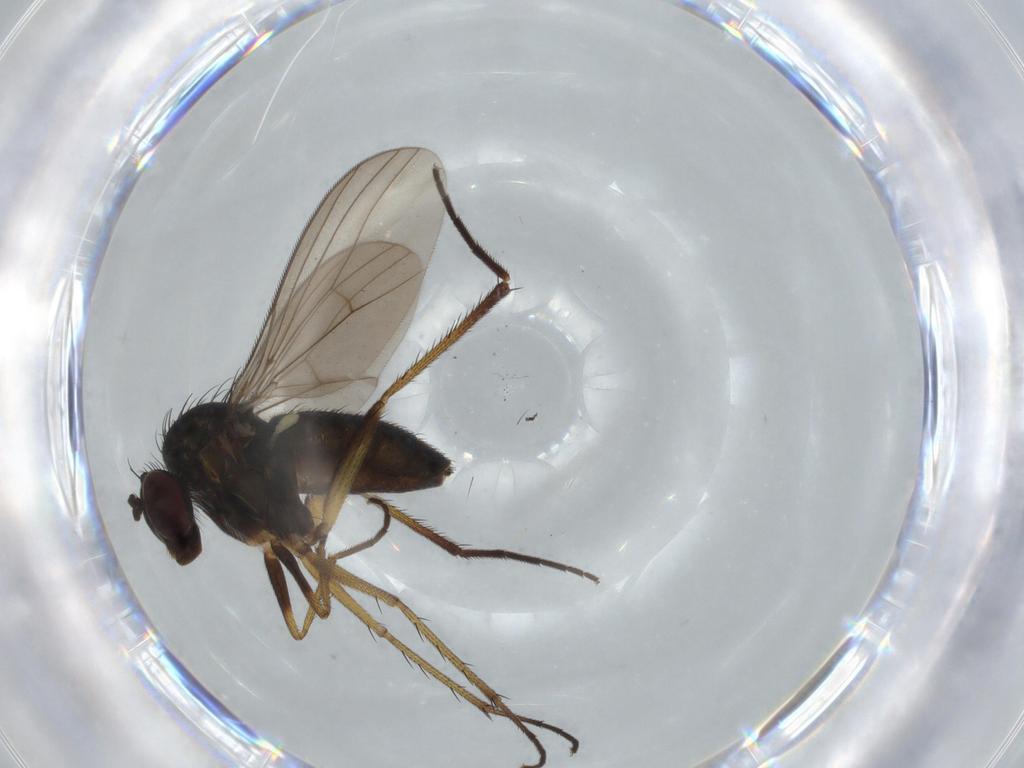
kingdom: Animalia
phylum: Arthropoda
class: Insecta
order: Diptera
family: Dolichopodidae
